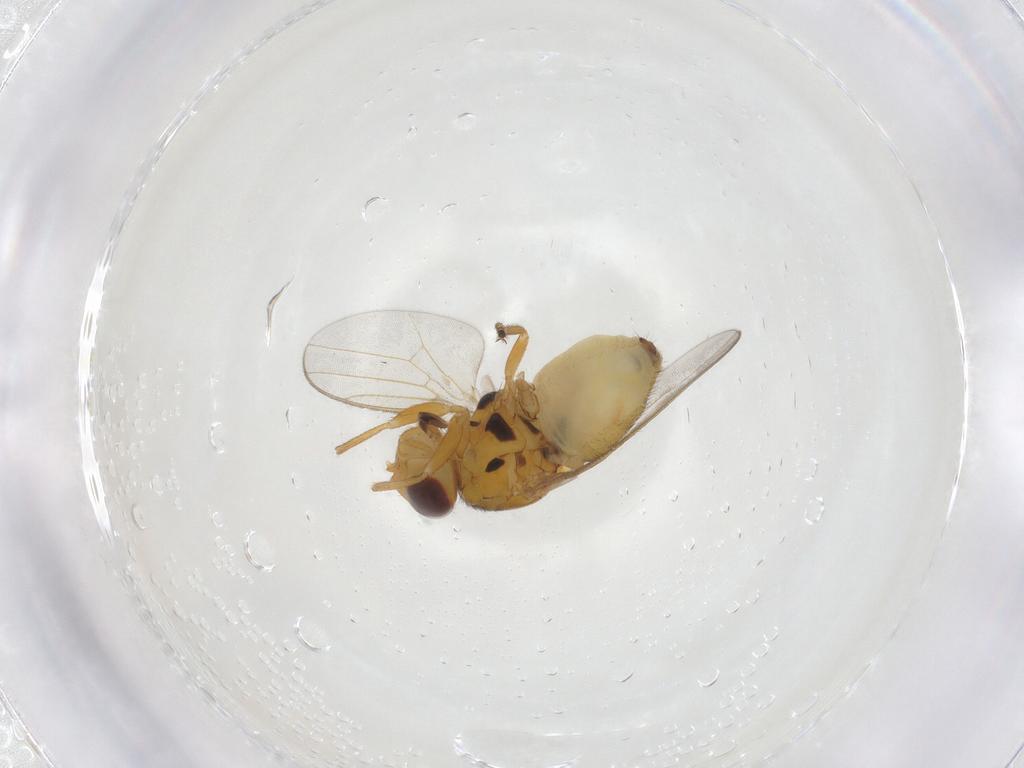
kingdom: Animalia
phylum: Arthropoda
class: Insecta
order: Diptera
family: Chloropidae
